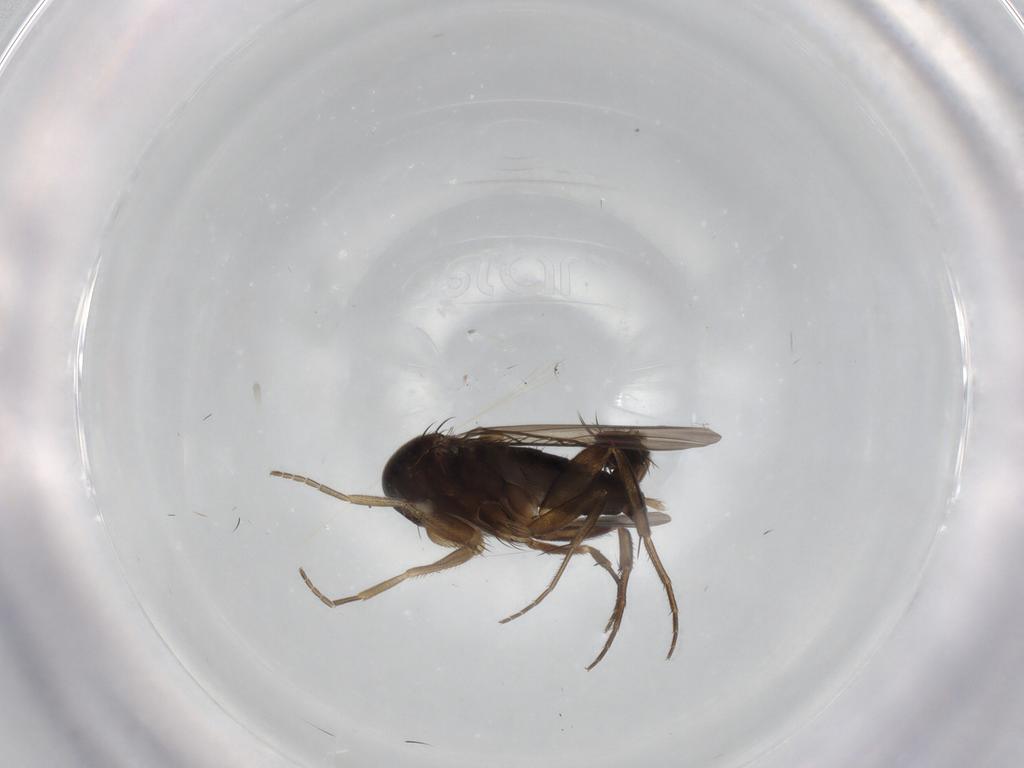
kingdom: Animalia
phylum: Arthropoda
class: Insecta
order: Diptera
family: Phoridae
